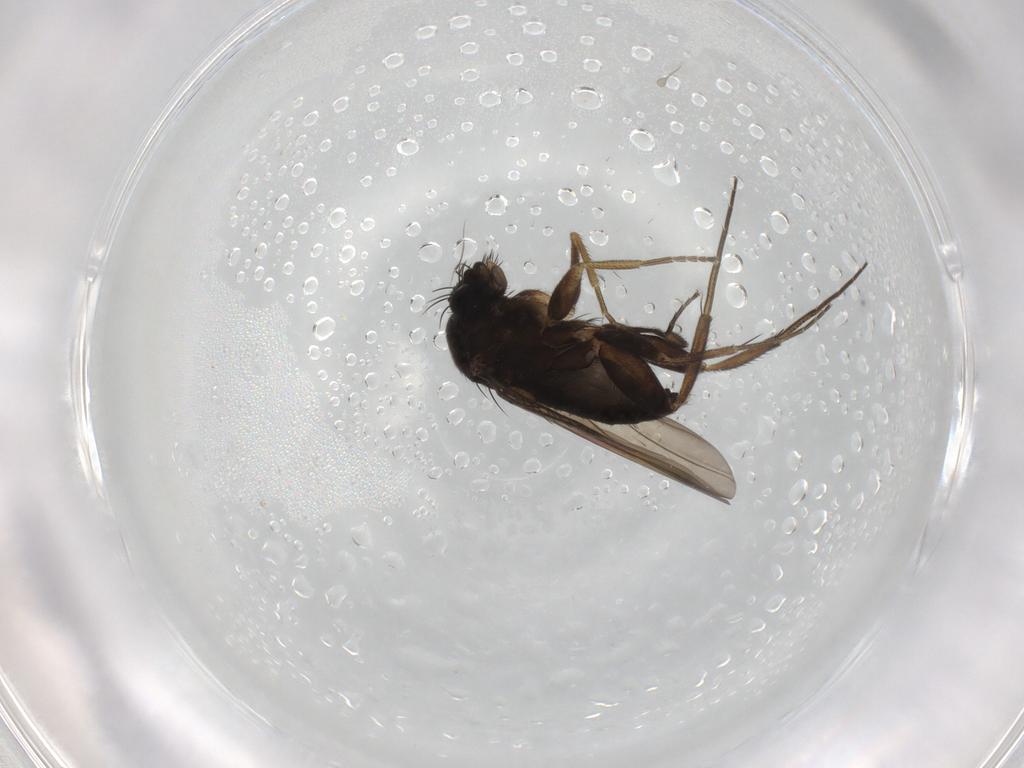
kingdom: Animalia
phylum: Arthropoda
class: Insecta
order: Diptera
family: Phoridae
